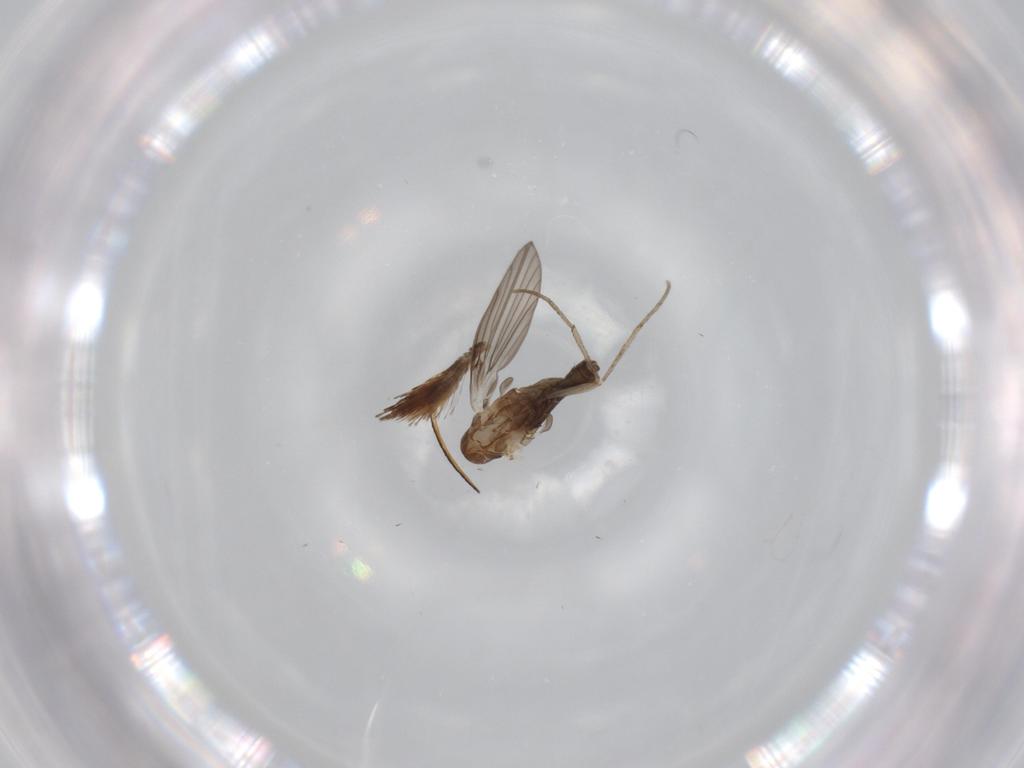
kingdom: Animalia
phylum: Arthropoda
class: Insecta
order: Diptera
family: Psychodidae
